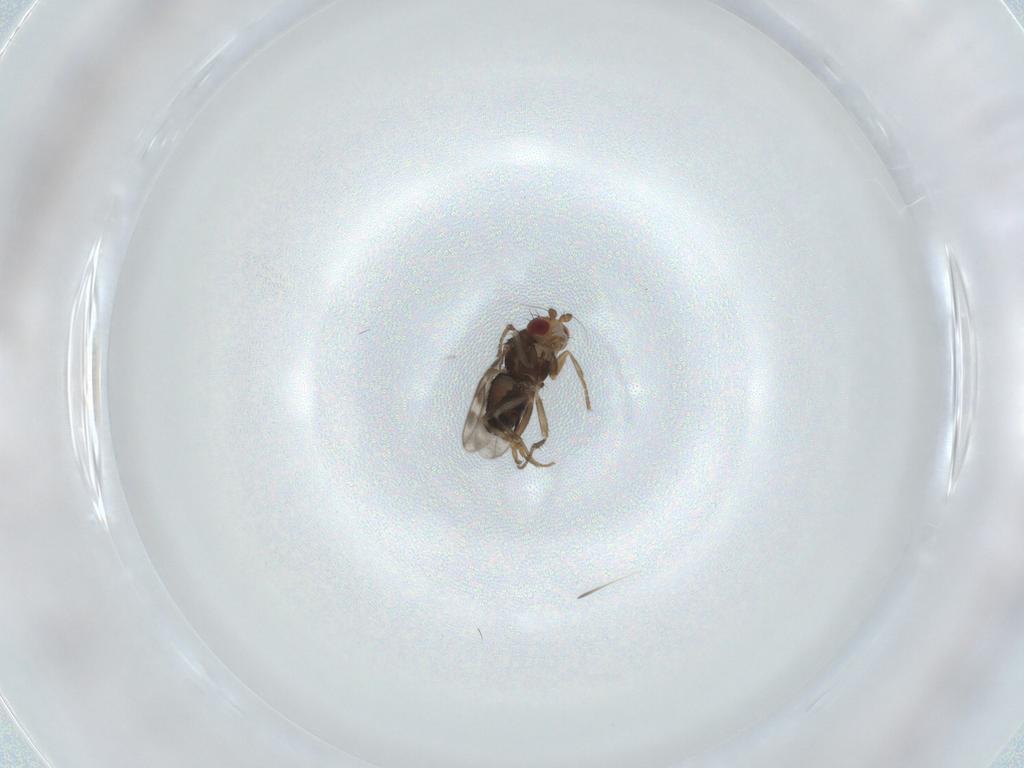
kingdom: Animalia
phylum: Arthropoda
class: Insecta
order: Diptera
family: Sphaeroceridae
